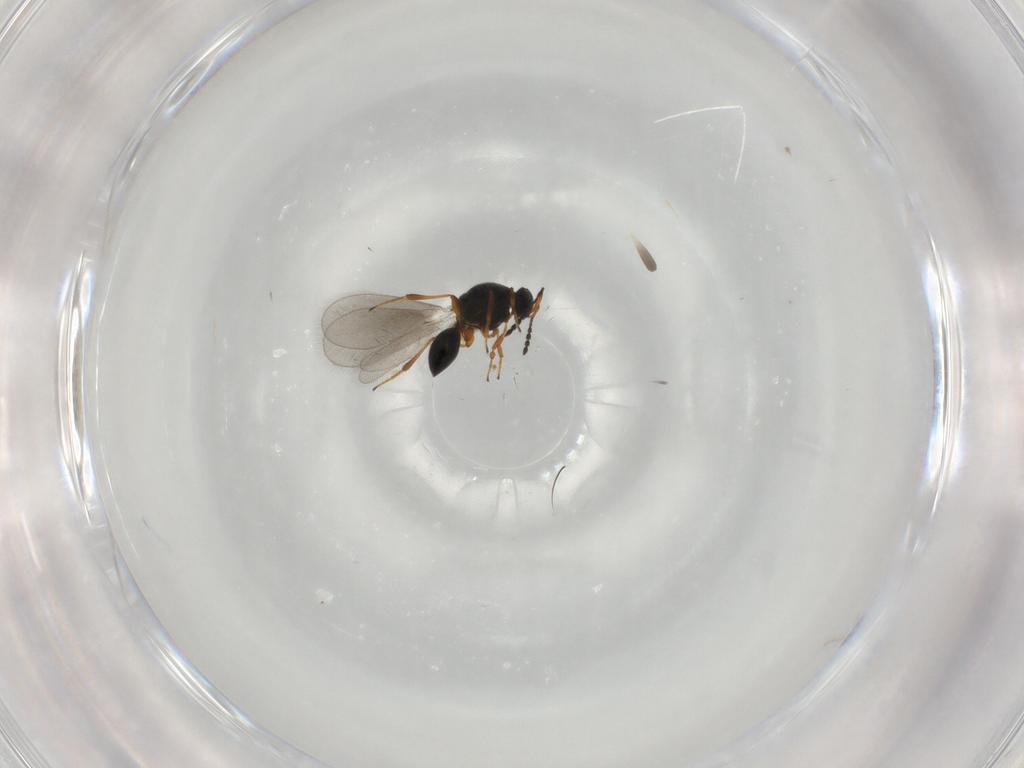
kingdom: Animalia
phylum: Arthropoda
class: Insecta
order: Hymenoptera
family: Platygastridae
